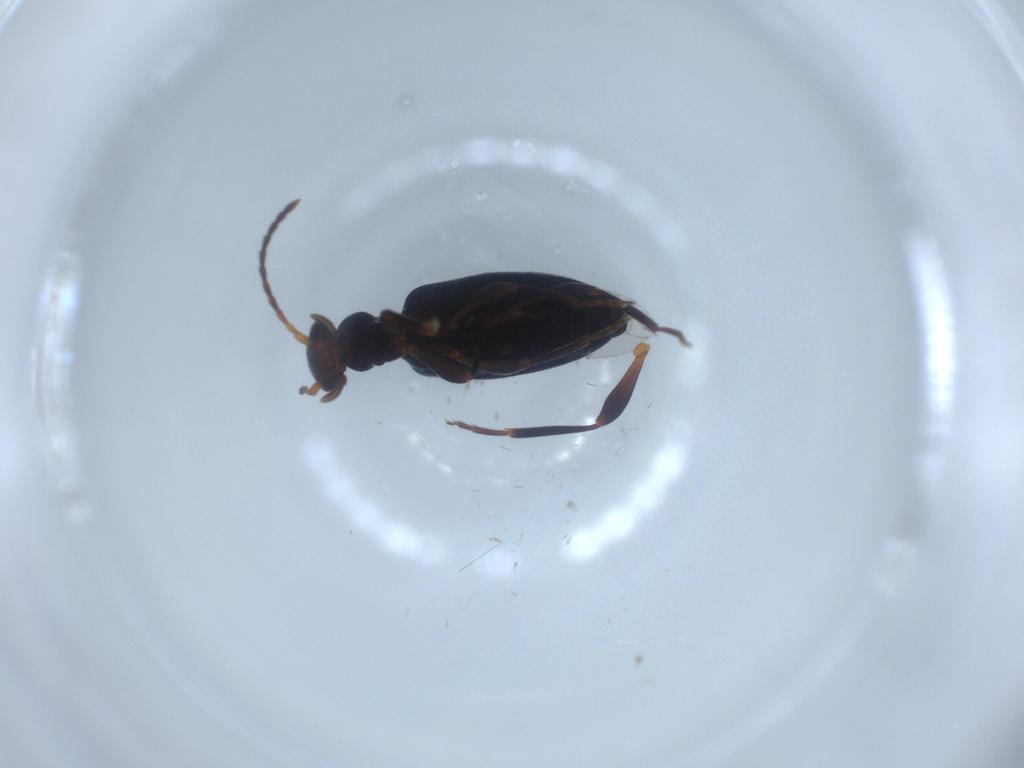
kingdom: Animalia
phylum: Arthropoda
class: Insecta
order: Coleoptera
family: Anthicidae
